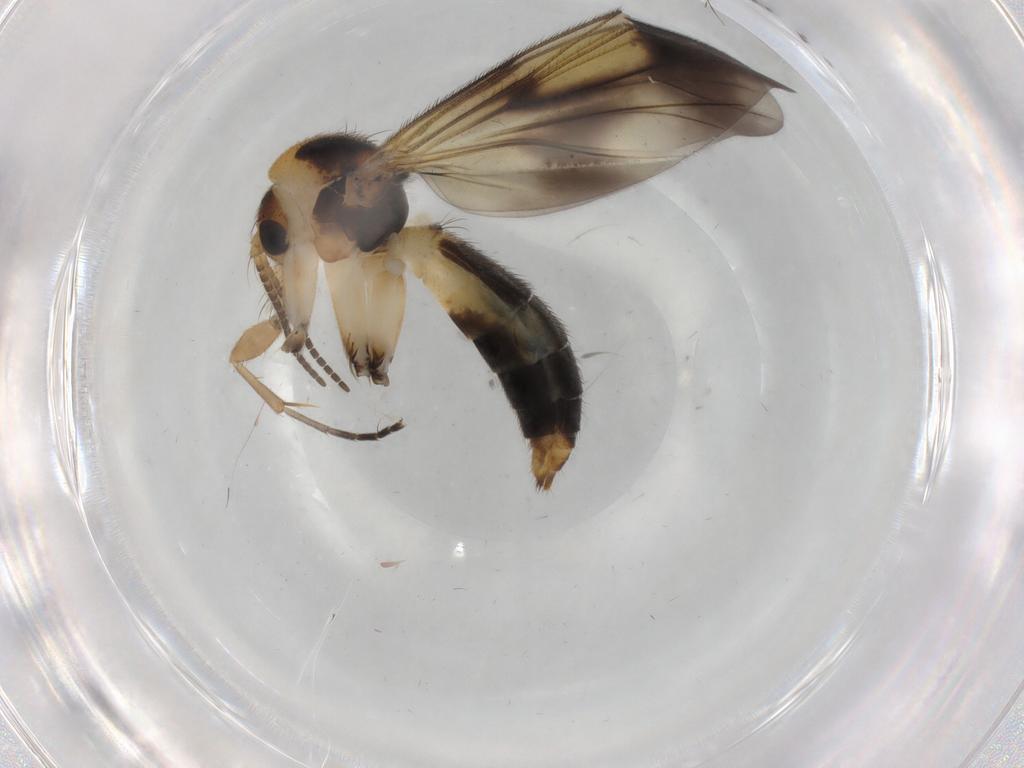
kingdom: Animalia
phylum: Arthropoda
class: Insecta
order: Diptera
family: Mycetophilidae
